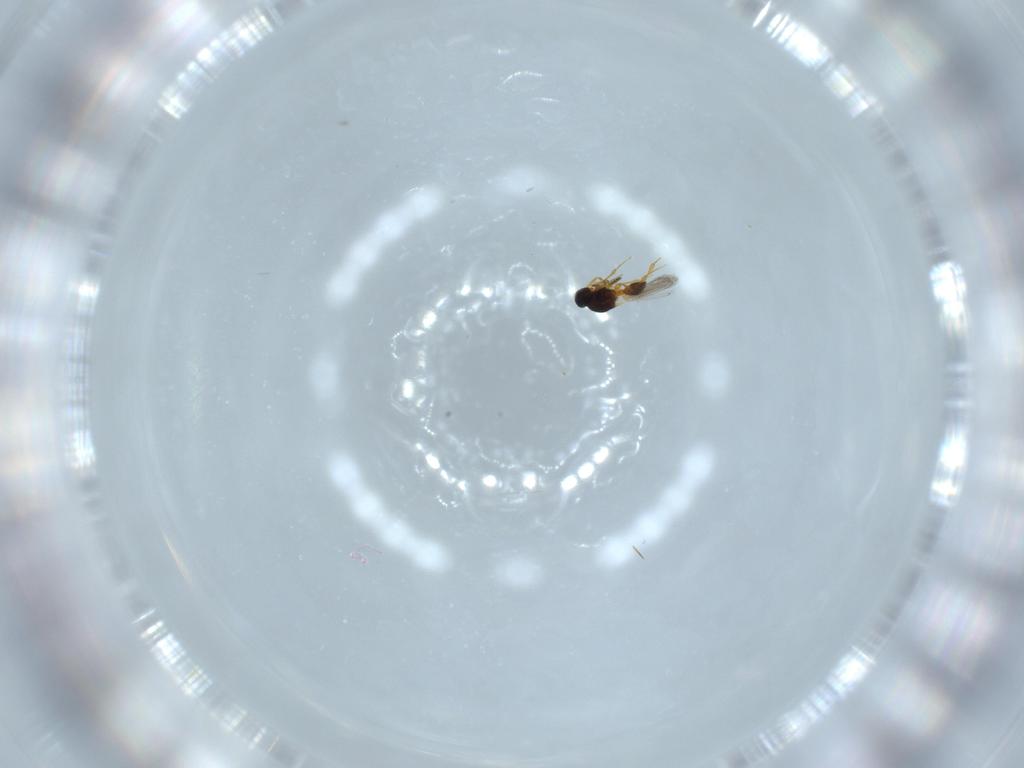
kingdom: Animalia
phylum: Arthropoda
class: Insecta
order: Hymenoptera
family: Platygastridae
